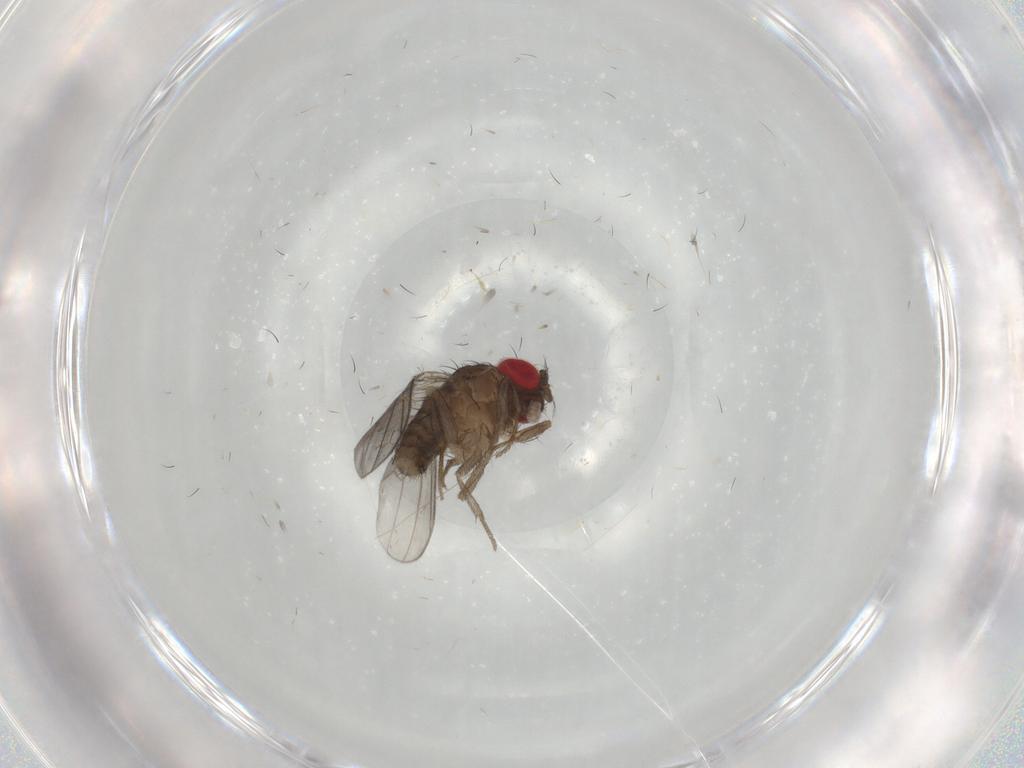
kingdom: Animalia
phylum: Arthropoda
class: Insecta
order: Diptera
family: Drosophilidae
